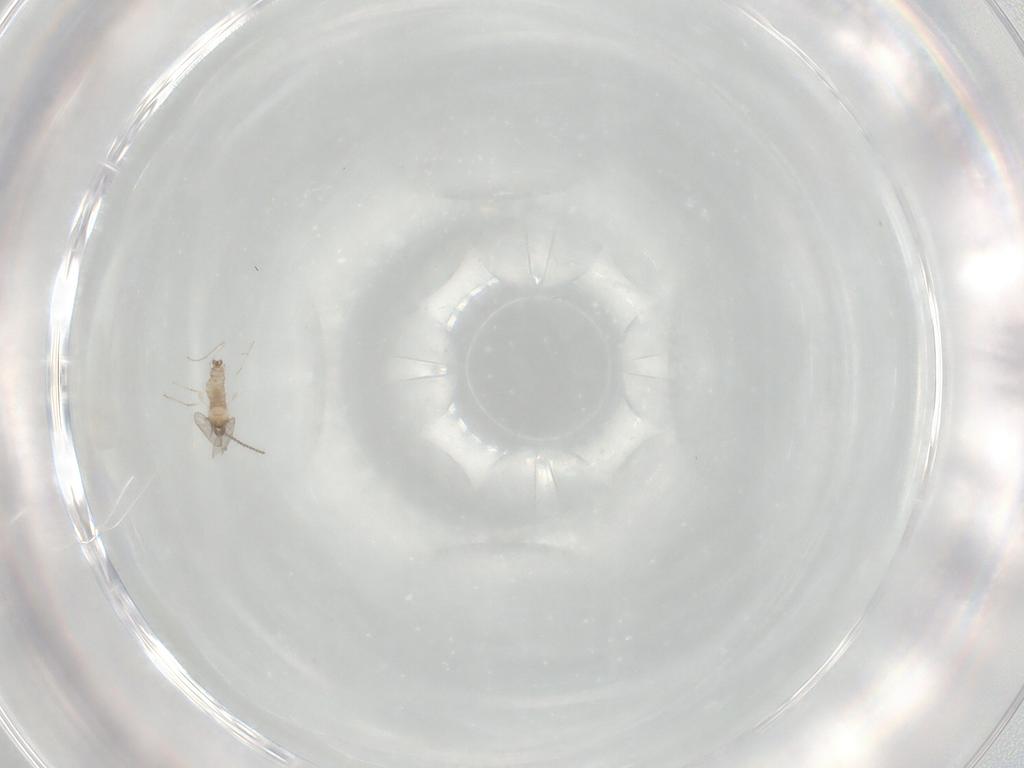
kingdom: Animalia
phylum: Arthropoda
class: Insecta
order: Diptera
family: Cecidomyiidae
